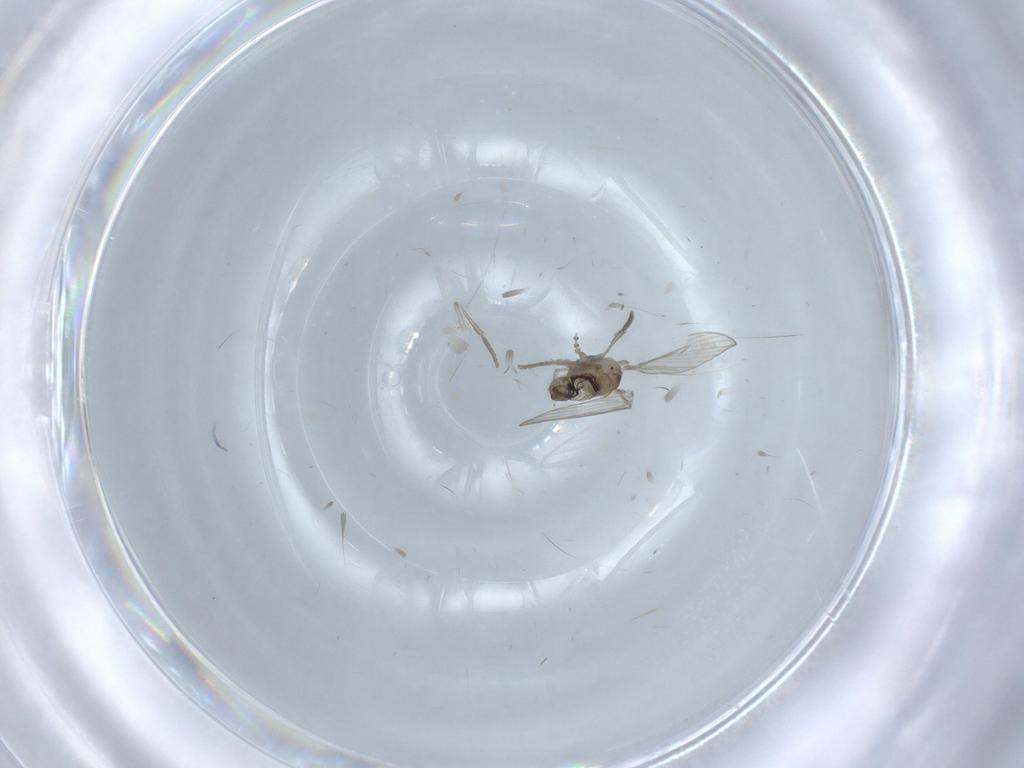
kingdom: Animalia
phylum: Arthropoda
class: Insecta
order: Diptera
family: Psychodidae
